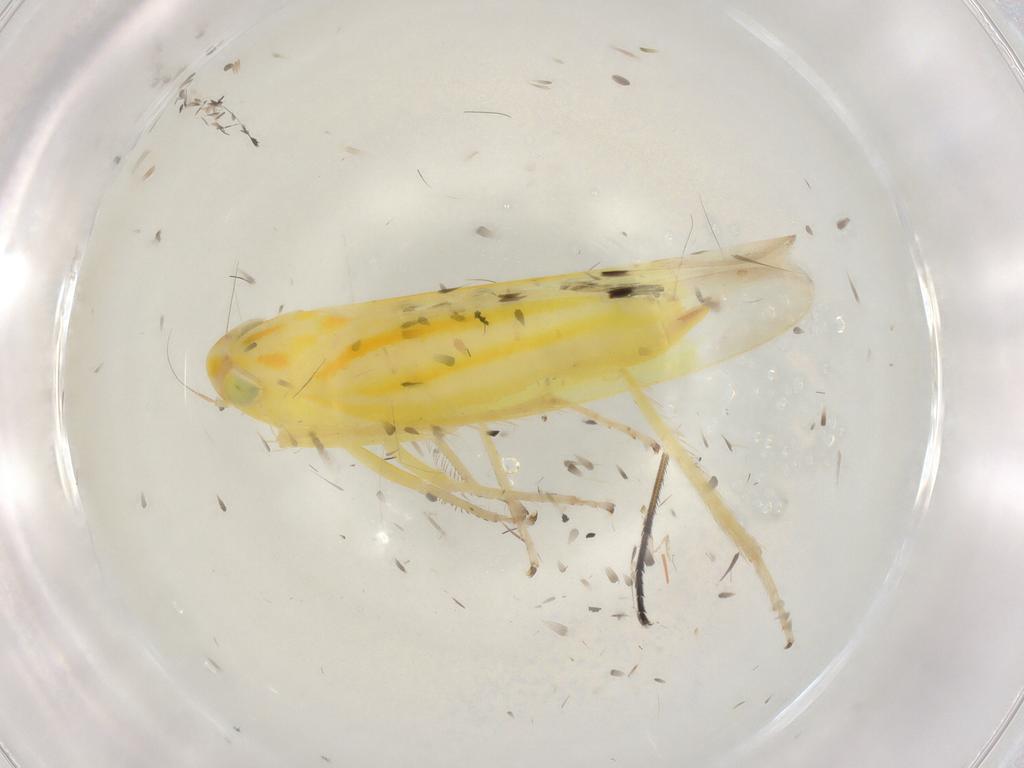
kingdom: Animalia
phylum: Arthropoda
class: Insecta
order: Hemiptera
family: Cicadellidae
